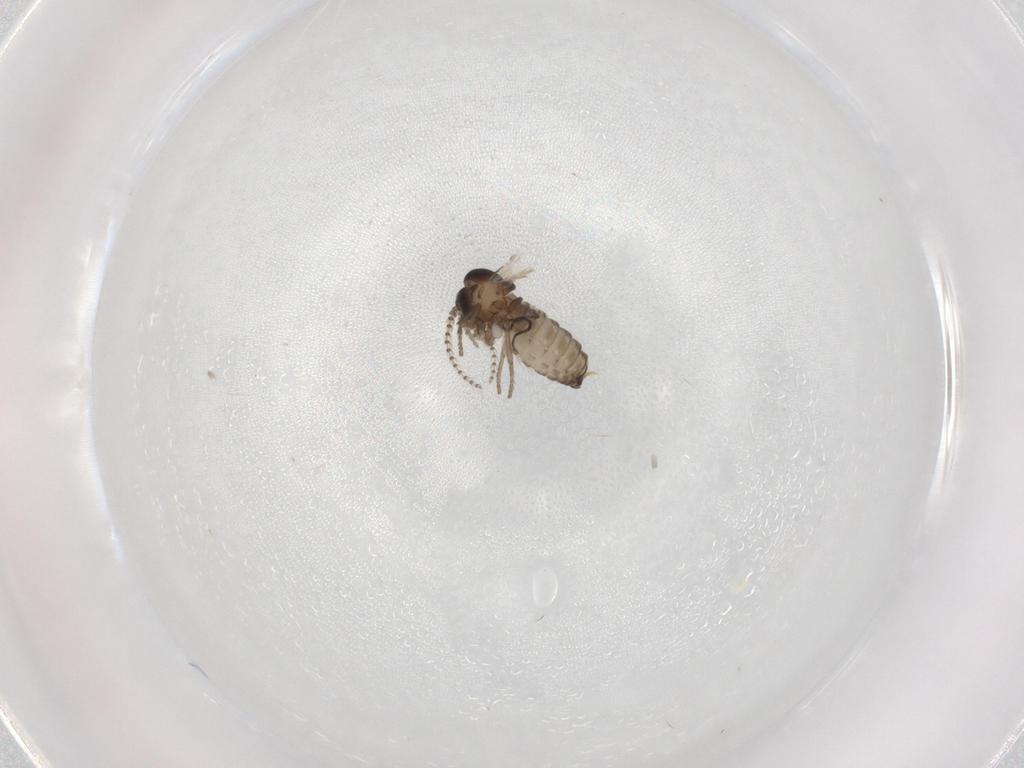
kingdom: Animalia
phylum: Arthropoda
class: Insecta
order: Diptera
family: Psychodidae
